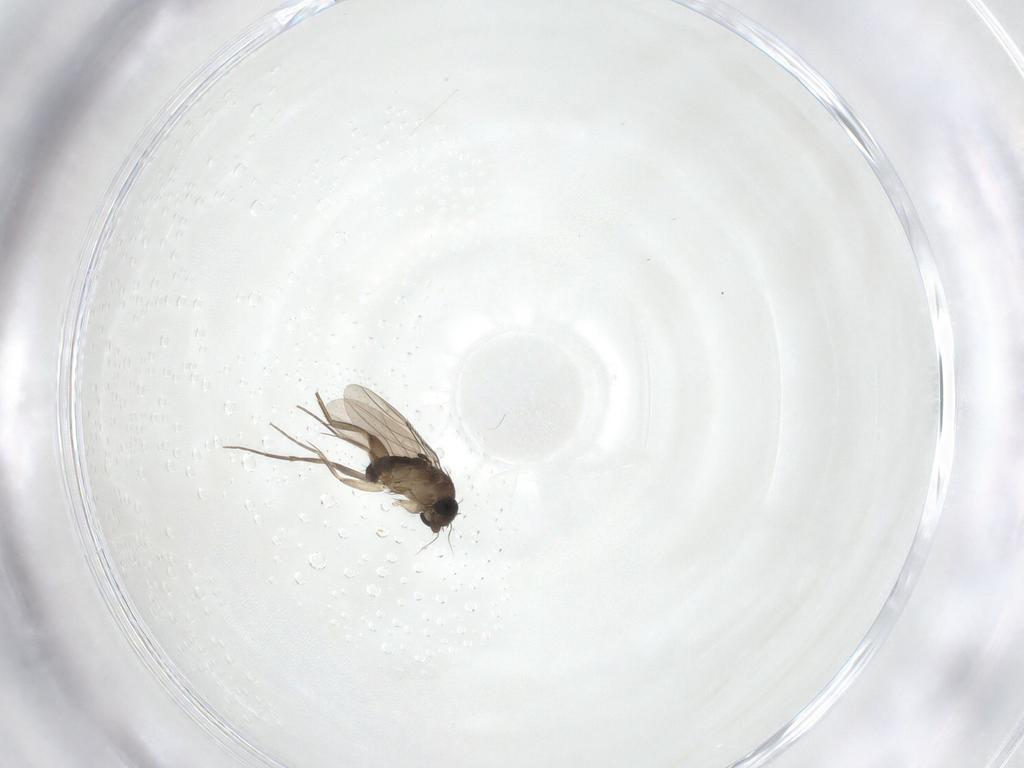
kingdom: Animalia
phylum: Arthropoda
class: Insecta
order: Diptera
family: Phoridae
